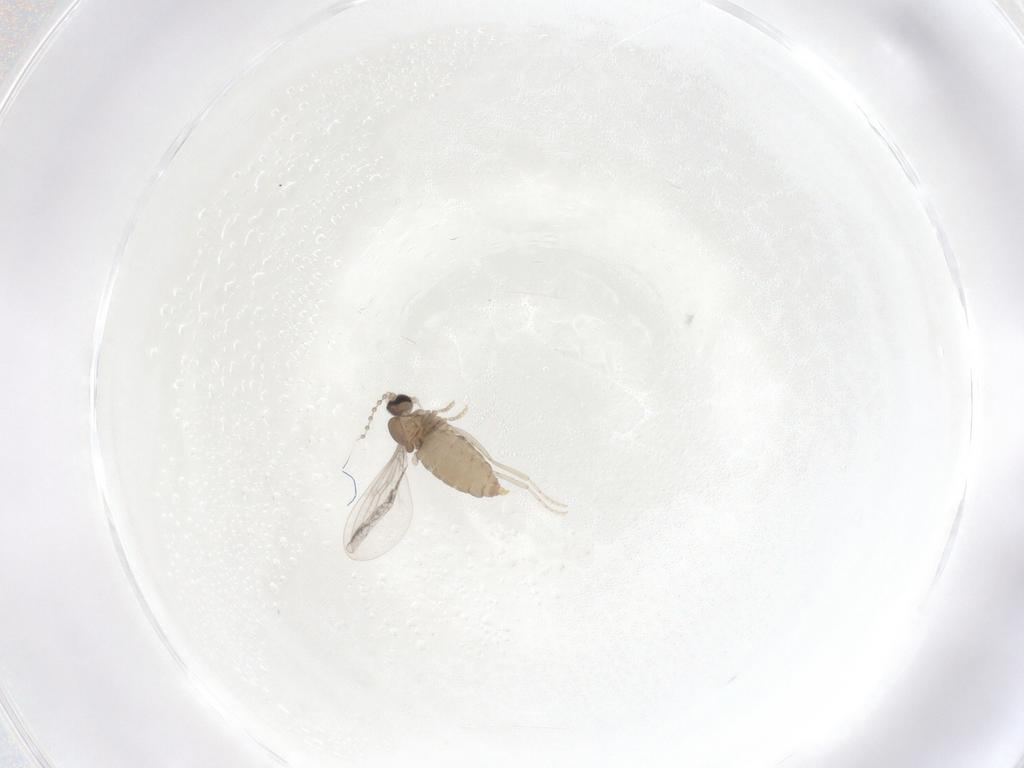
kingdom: Animalia
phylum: Arthropoda
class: Insecta
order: Diptera
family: Cecidomyiidae
